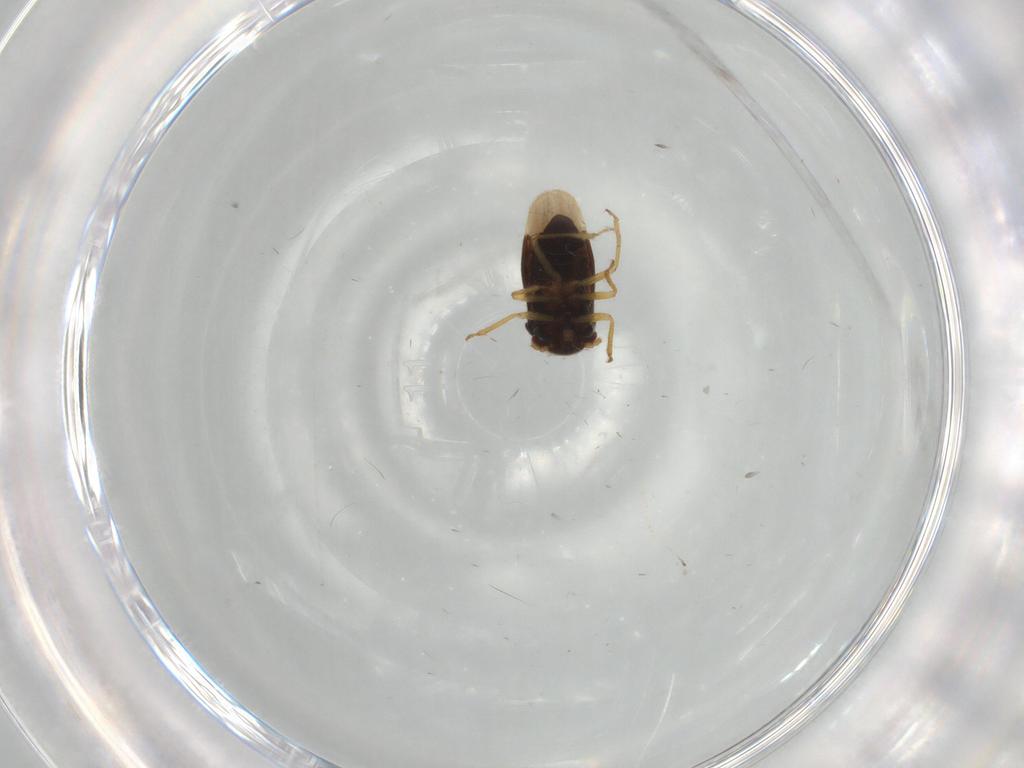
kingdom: Animalia
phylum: Arthropoda
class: Insecta
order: Hemiptera
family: Schizopteridae
